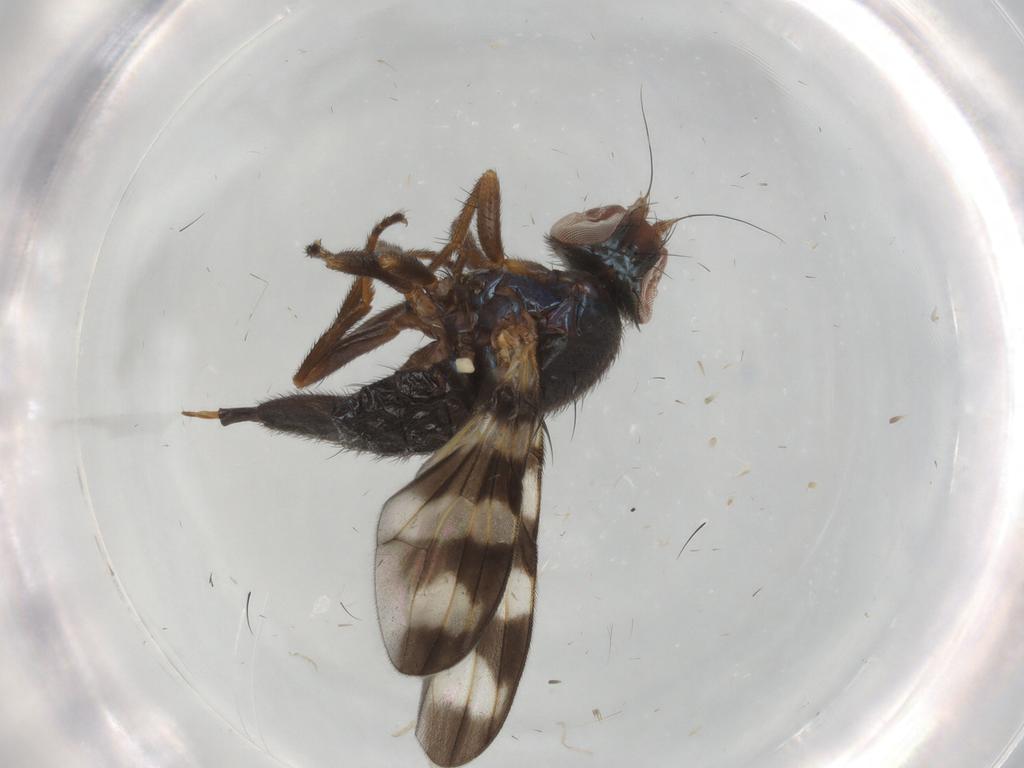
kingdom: Animalia
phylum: Arthropoda
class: Insecta
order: Diptera
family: Ulidiidae
